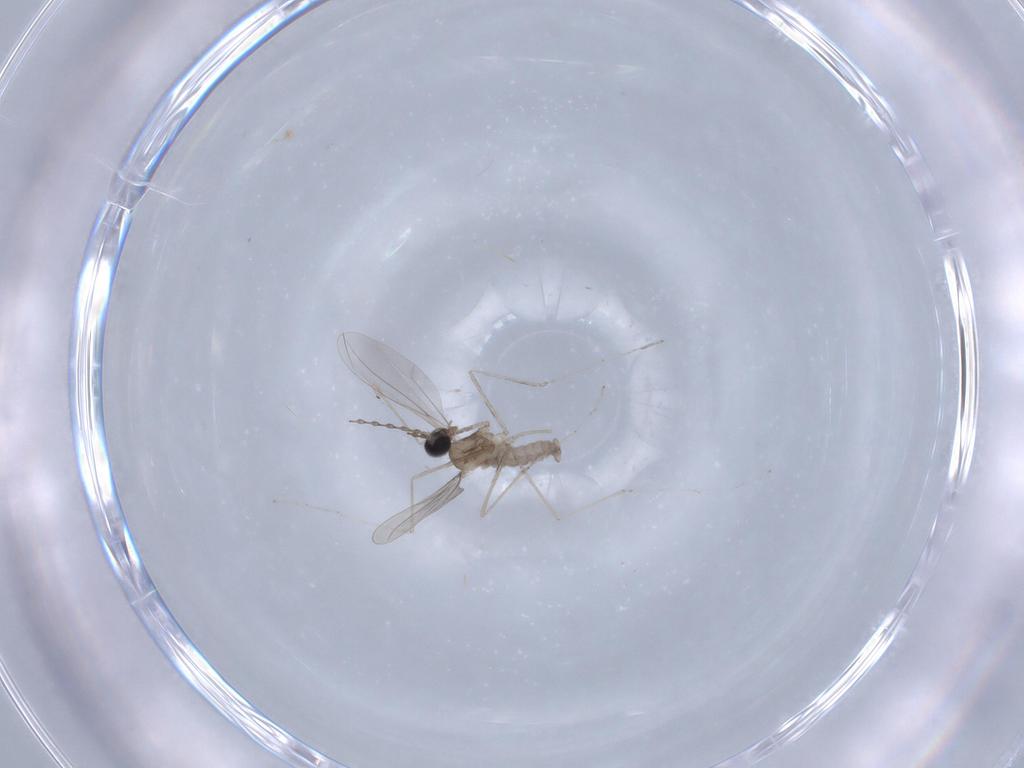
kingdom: Animalia
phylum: Arthropoda
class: Insecta
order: Diptera
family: Cecidomyiidae
